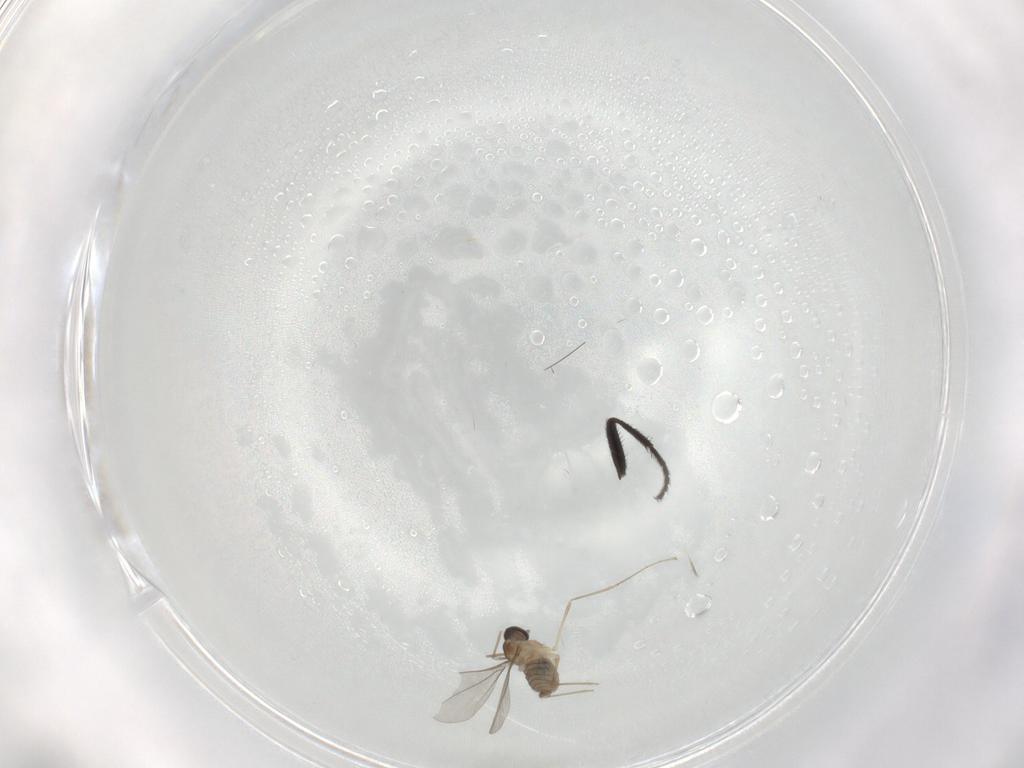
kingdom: Animalia
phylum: Arthropoda
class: Insecta
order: Diptera
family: Cecidomyiidae
